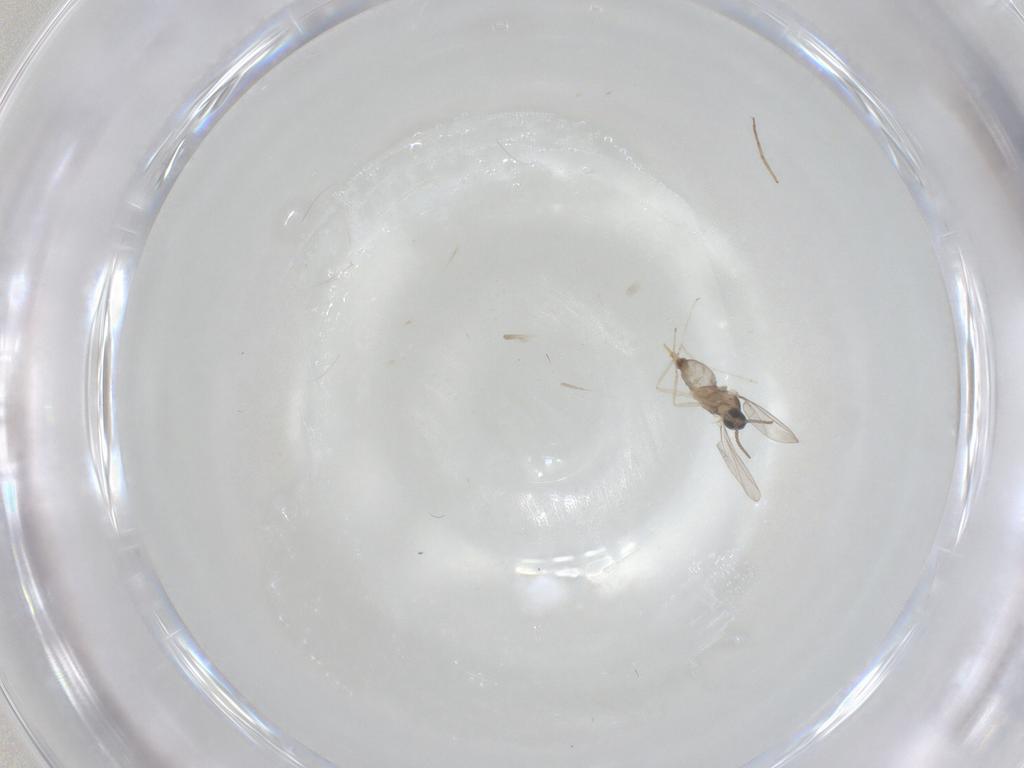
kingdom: Animalia
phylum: Arthropoda
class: Insecta
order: Diptera
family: Cecidomyiidae
